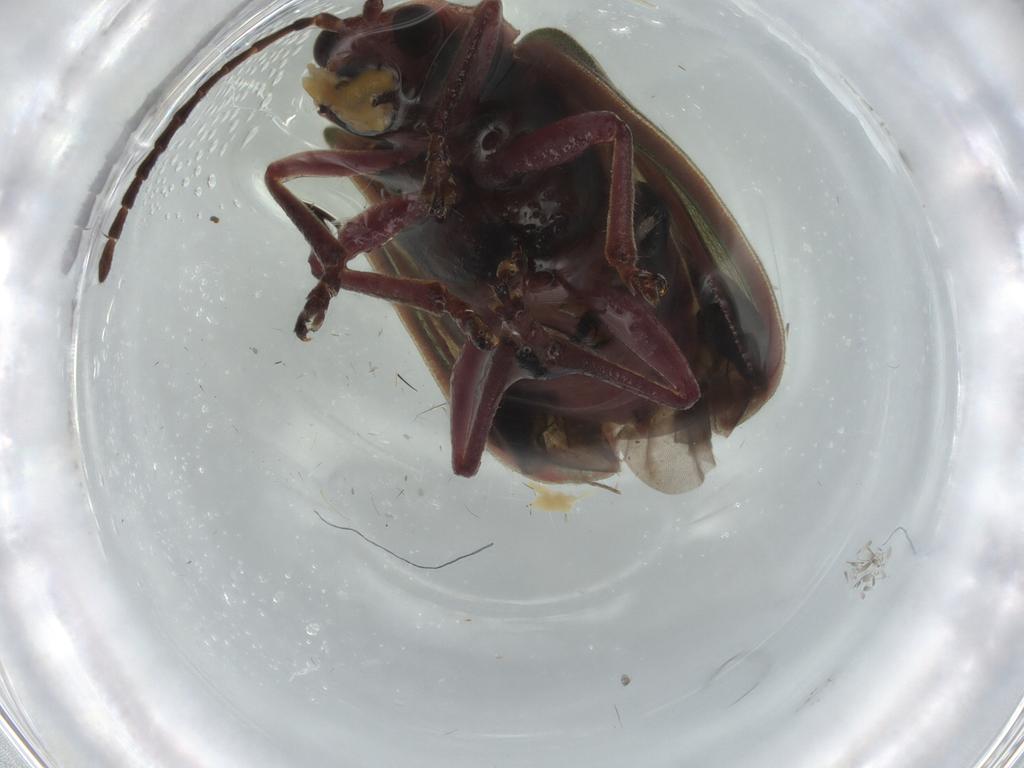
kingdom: Animalia
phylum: Arthropoda
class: Insecta
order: Coleoptera
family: Chrysomelidae
